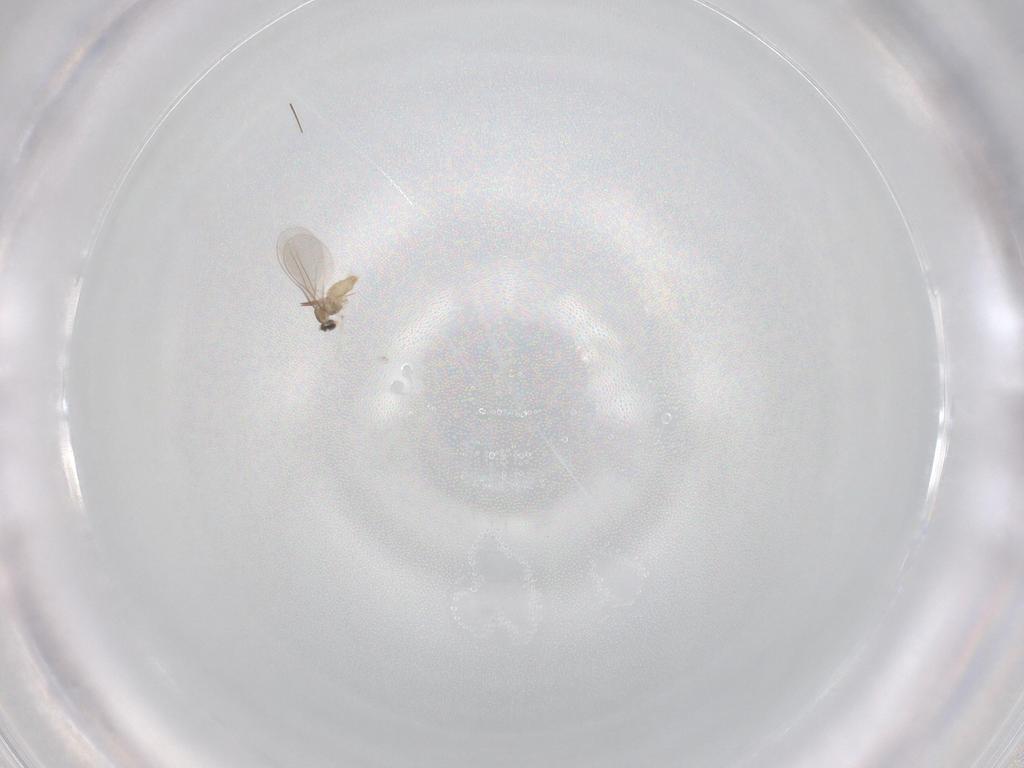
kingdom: Animalia
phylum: Arthropoda
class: Insecta
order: Diptera
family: Cecidomyiidae
